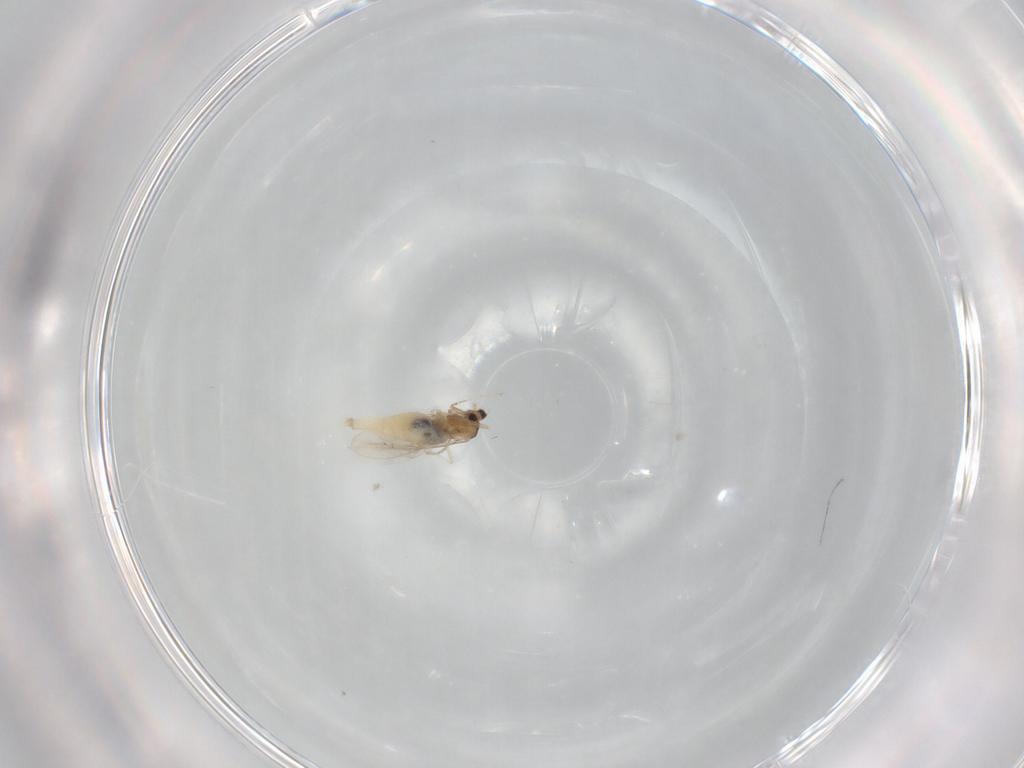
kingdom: Animalia
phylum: Arthropoda
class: Insecta
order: Diptera
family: Cecidomyiidae
